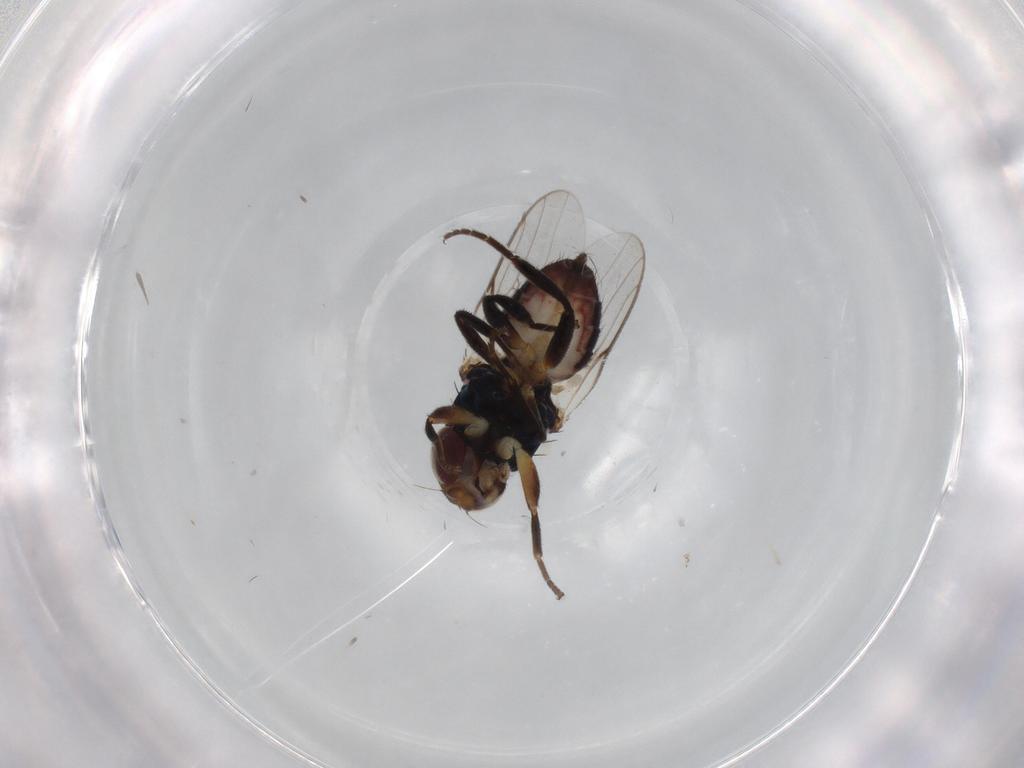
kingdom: Animalia
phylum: Arthropoda
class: Insecta
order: Diptera
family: Chloropidae
